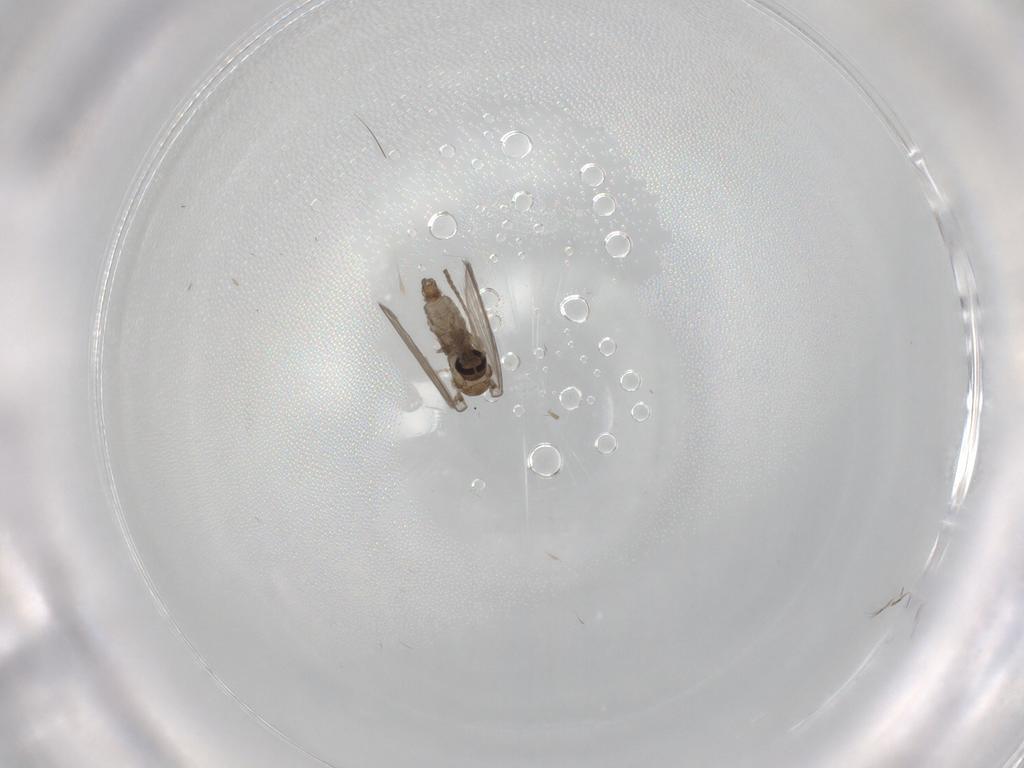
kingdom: Animalia
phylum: Arthropoda
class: Insecta
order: Diptera
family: Psychodidae
